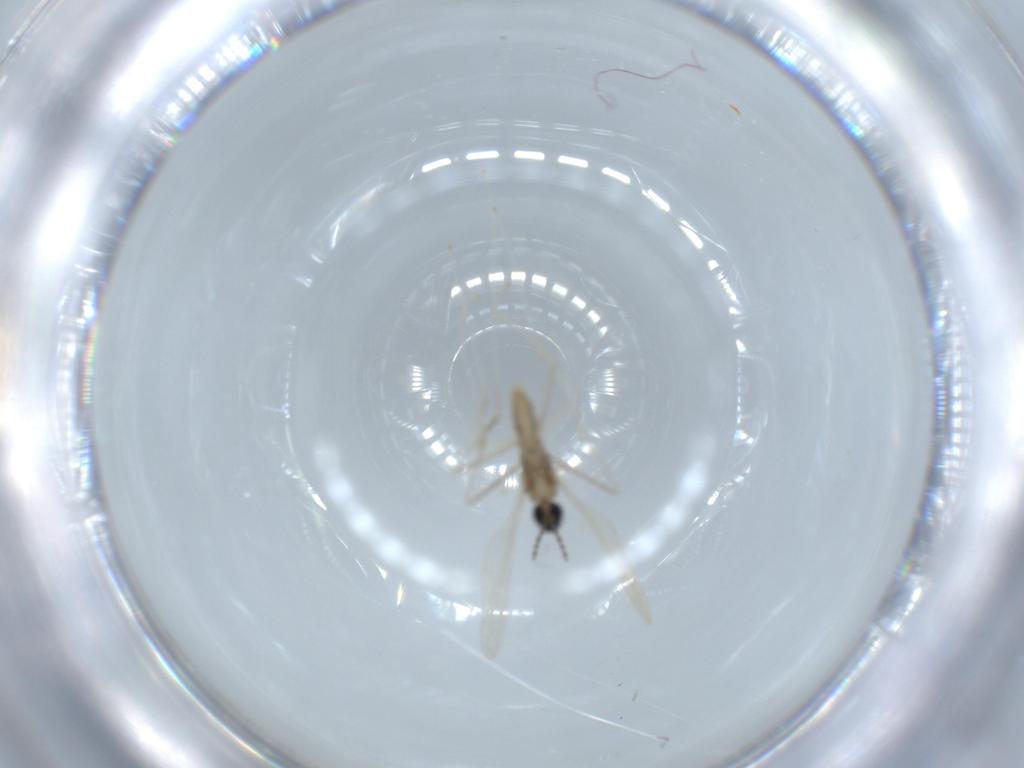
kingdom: Animalia
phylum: Arthropoda
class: Insecta
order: Diptera
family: Cecidomyiidae
